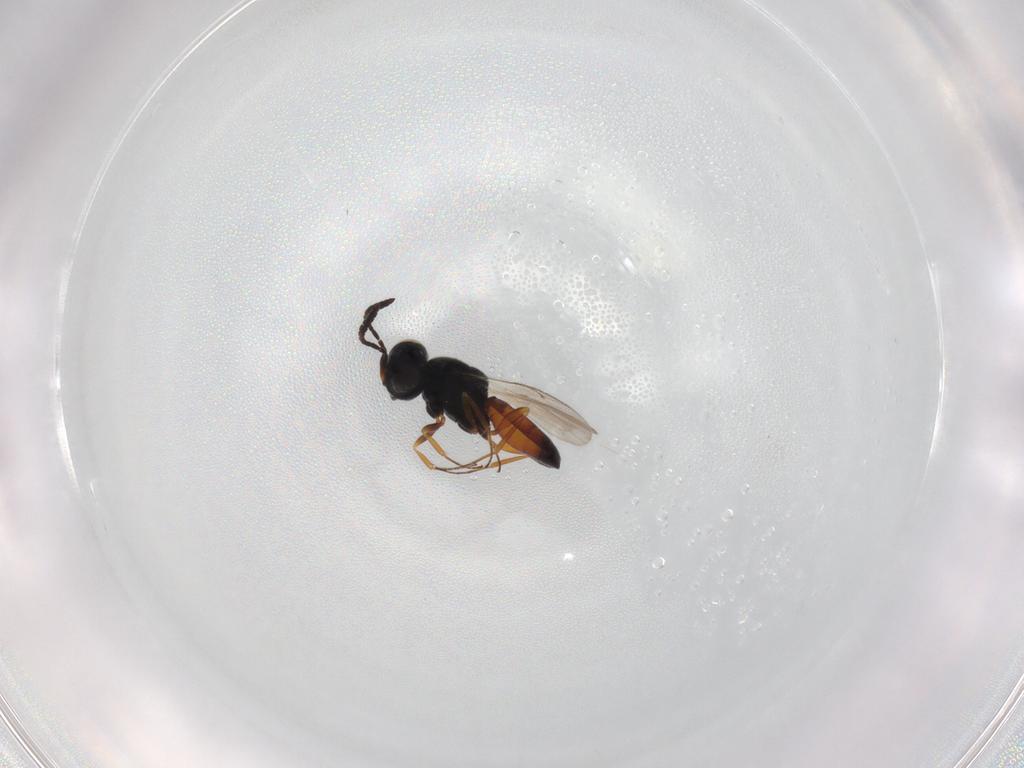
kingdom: Animalia
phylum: Arthropoda
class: Insecta
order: Hymenoptera
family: Scelionidae
